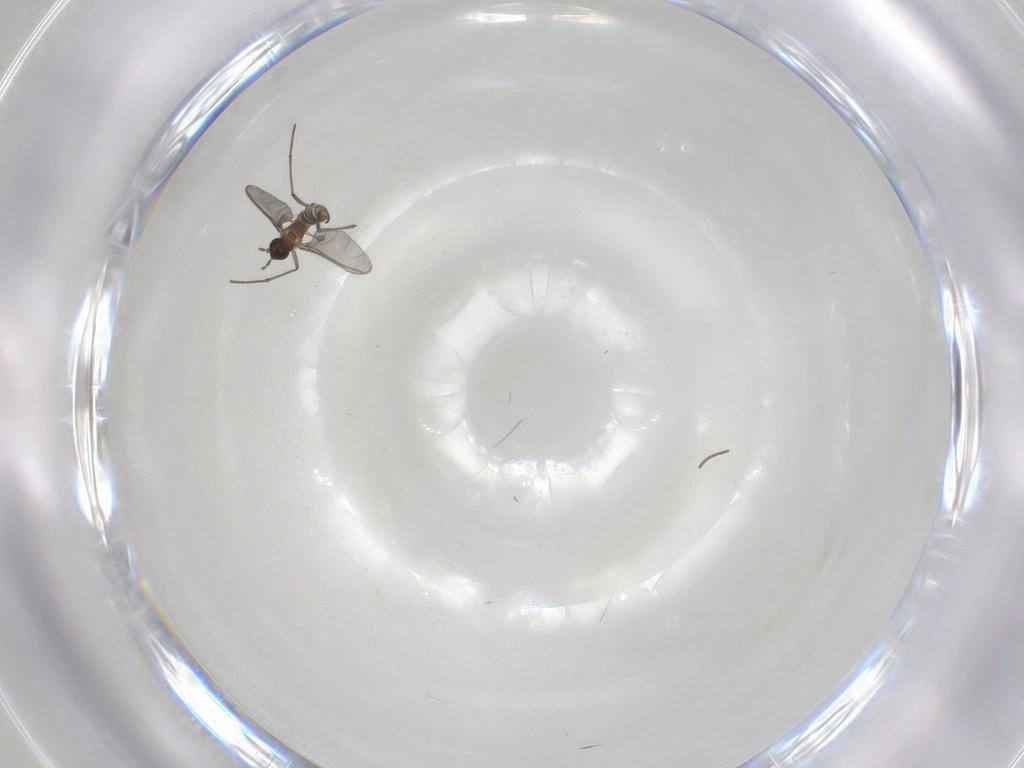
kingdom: Animalia
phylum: Arthropoda
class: Insecta
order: Diptera
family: Sciaridae
